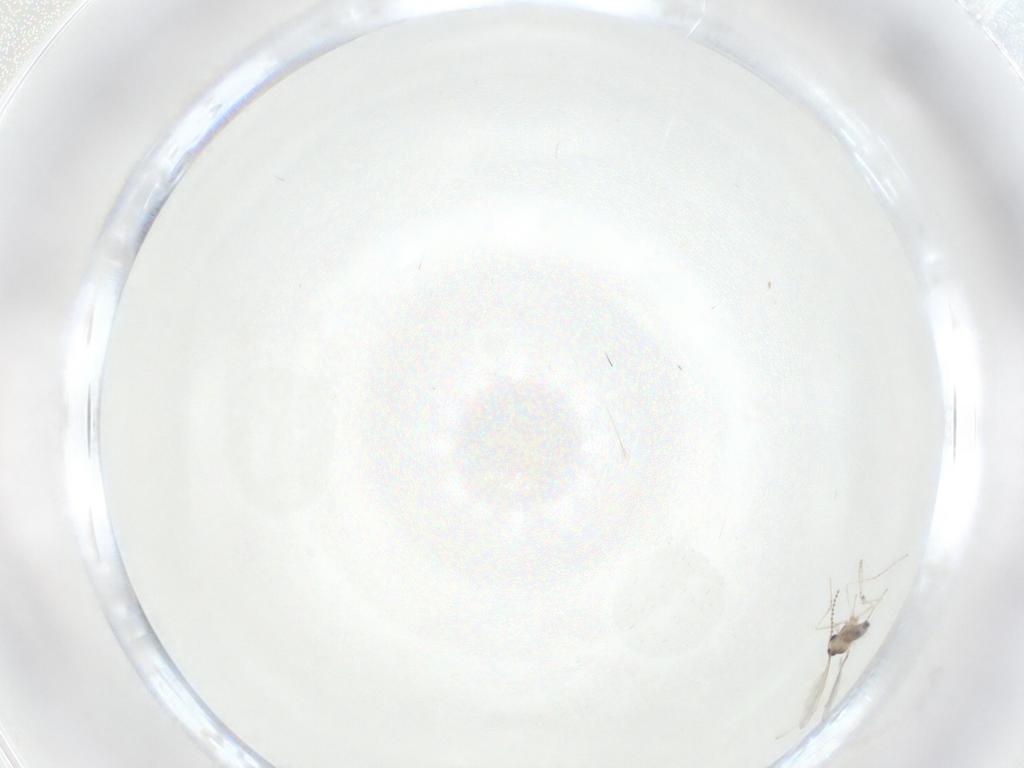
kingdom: Animalia
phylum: Arthropoda
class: Insecta
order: Diptera
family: Cecidomyiidae
